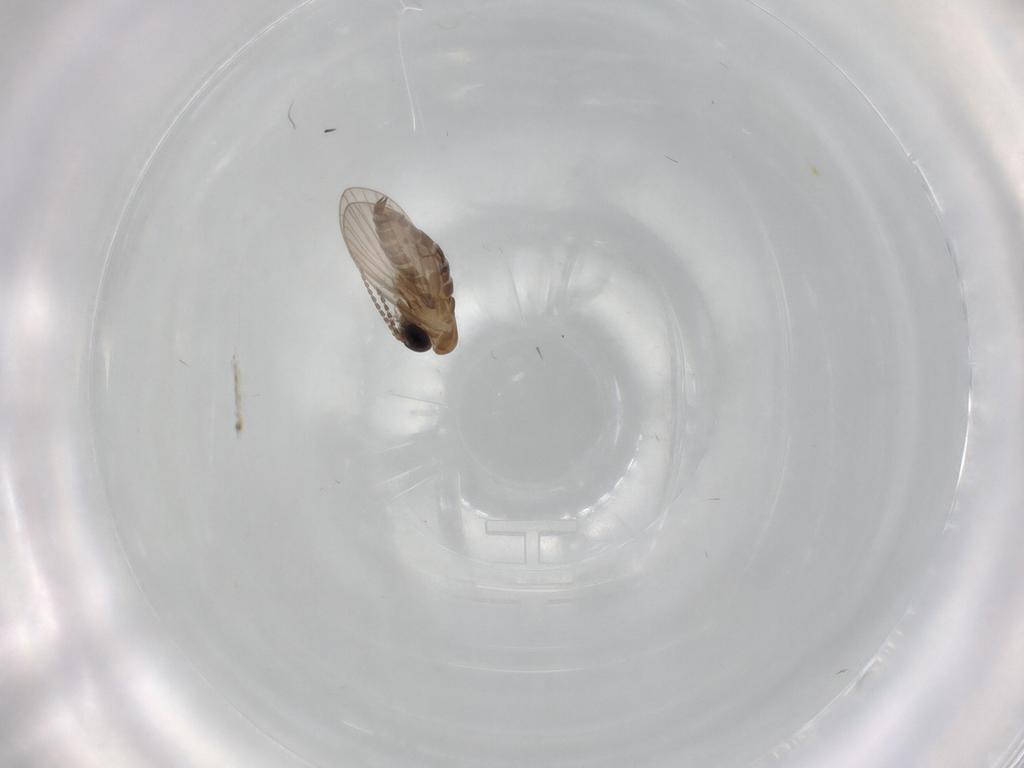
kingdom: Animalia
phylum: Arthropoda
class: Insecta
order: Diptera
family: Psychodidae
